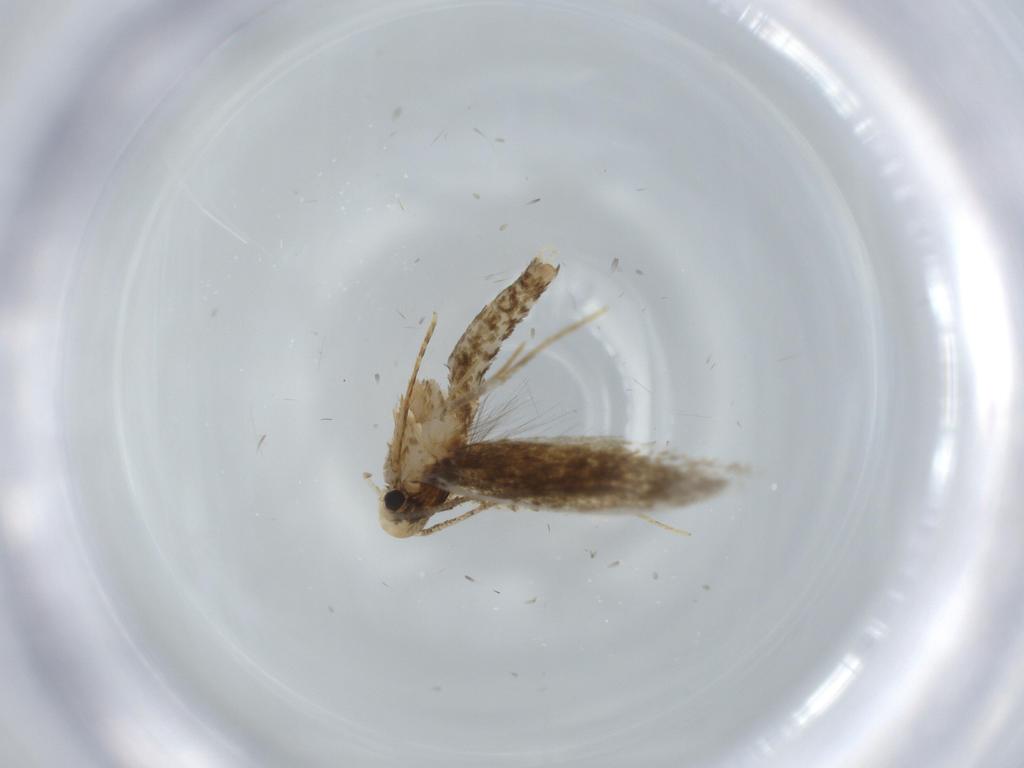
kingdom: Animalia
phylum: Arthropoda
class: Insecta
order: Lepidoptera
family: Tineidae
